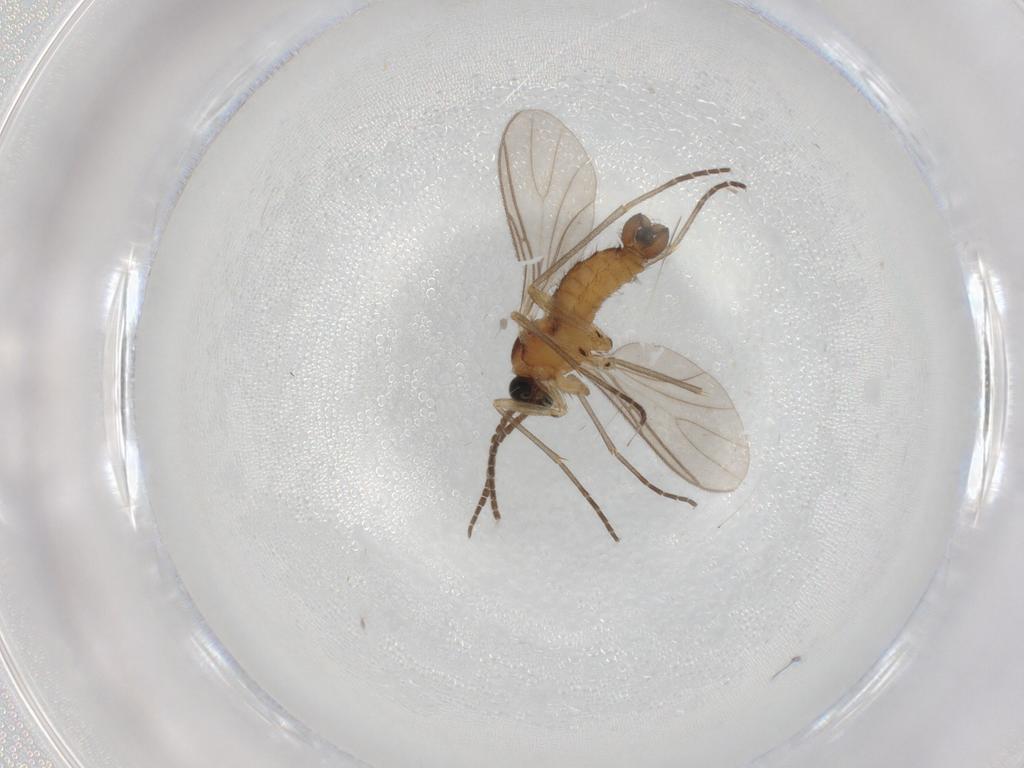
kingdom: Animalia
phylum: Arthropoda
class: Insecta
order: Diptera
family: Sciaridae
